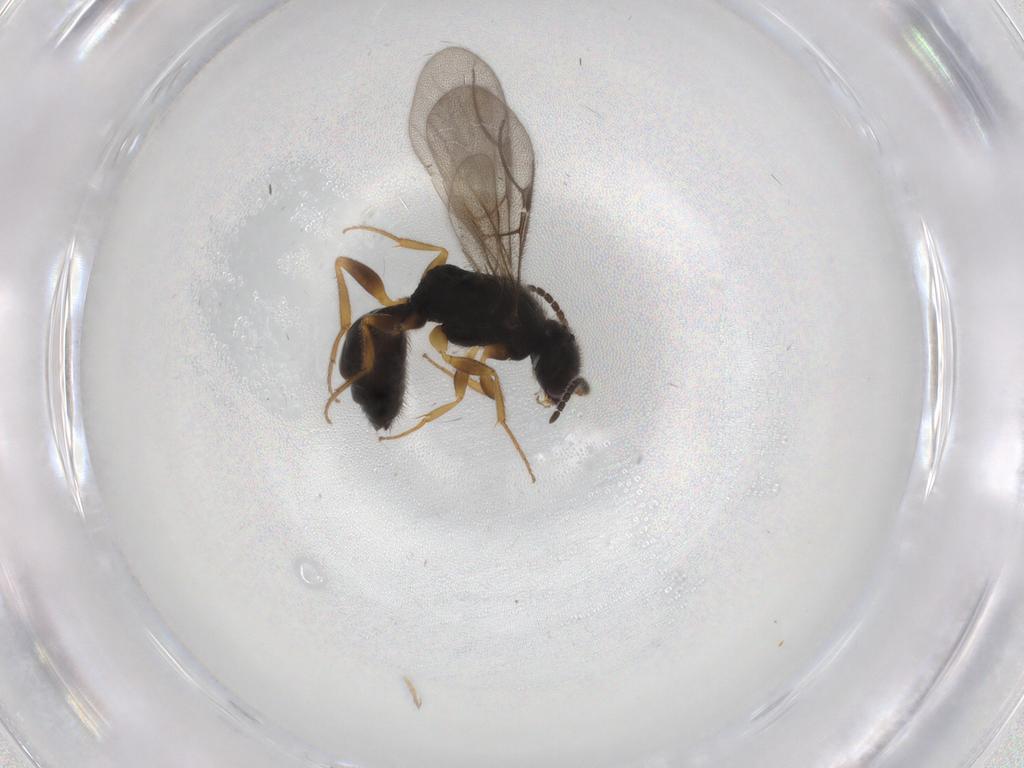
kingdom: Animalia
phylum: Arthropoda
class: Insecta
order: Hymenoptera
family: Bethylidae
